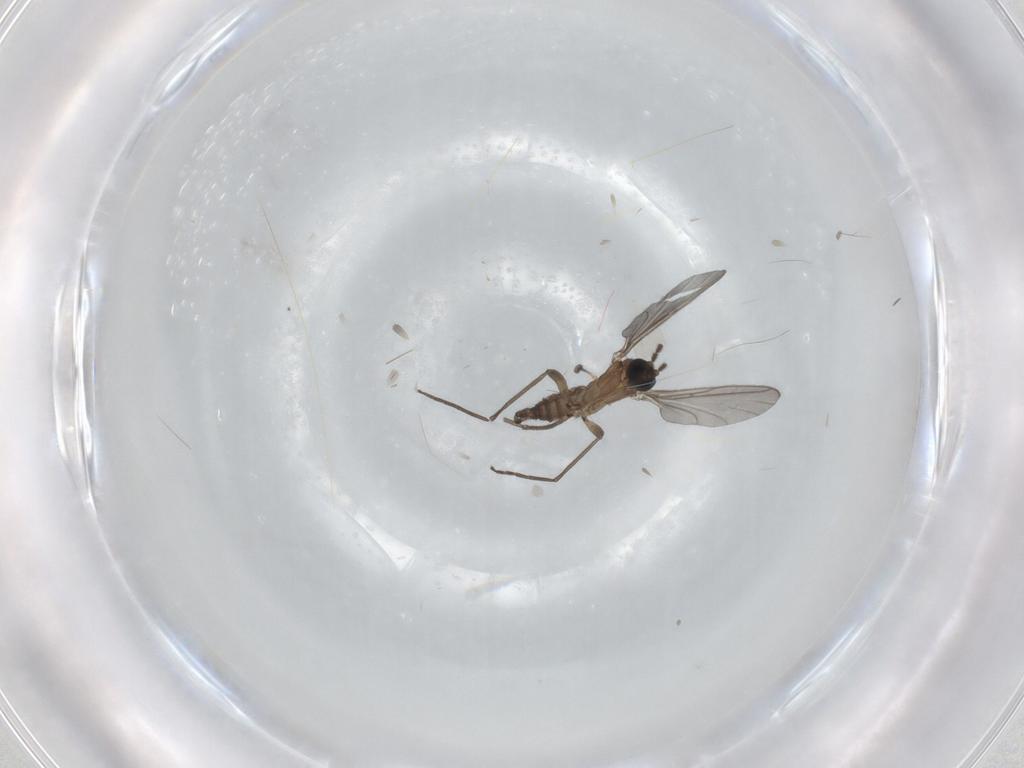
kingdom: Animalia
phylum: Arthropoda
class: Insecta
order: Diptera
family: Sciaridae
